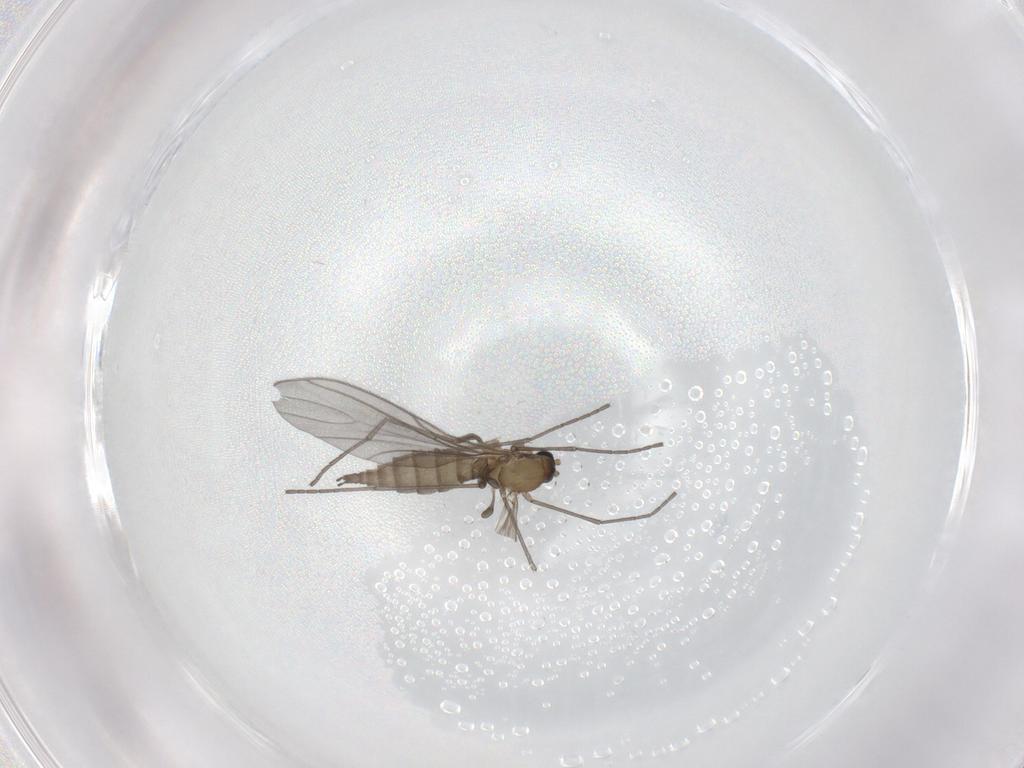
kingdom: Animalia
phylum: Arthropoda
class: Insecta
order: Diptera
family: Sciaridae
